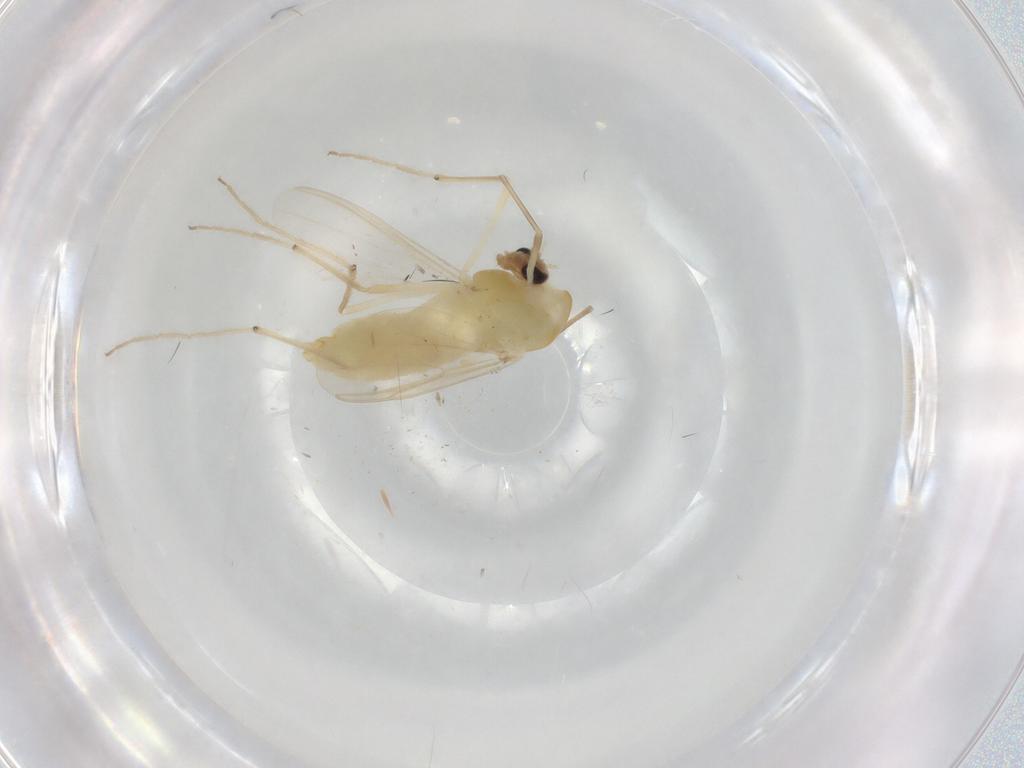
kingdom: Animalia
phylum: Arthropoda
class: Insecta
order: Diptera
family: Chironomidae
